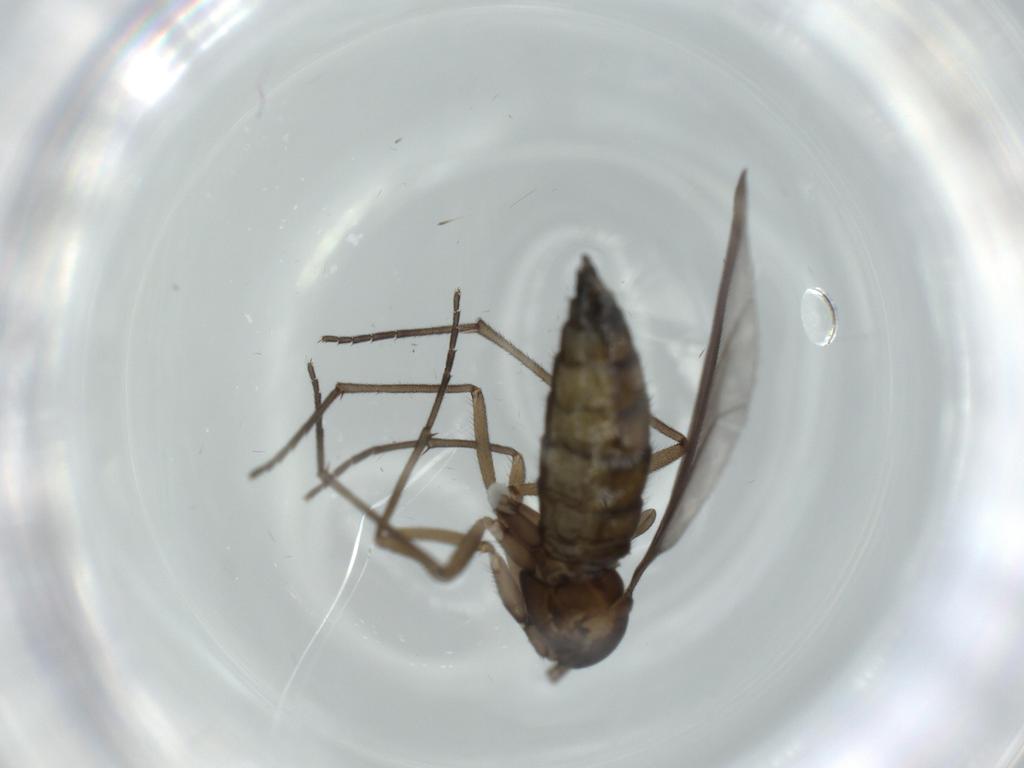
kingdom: Animalia
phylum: Arthropoda
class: Insecta
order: Diptera
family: Sciaridae
